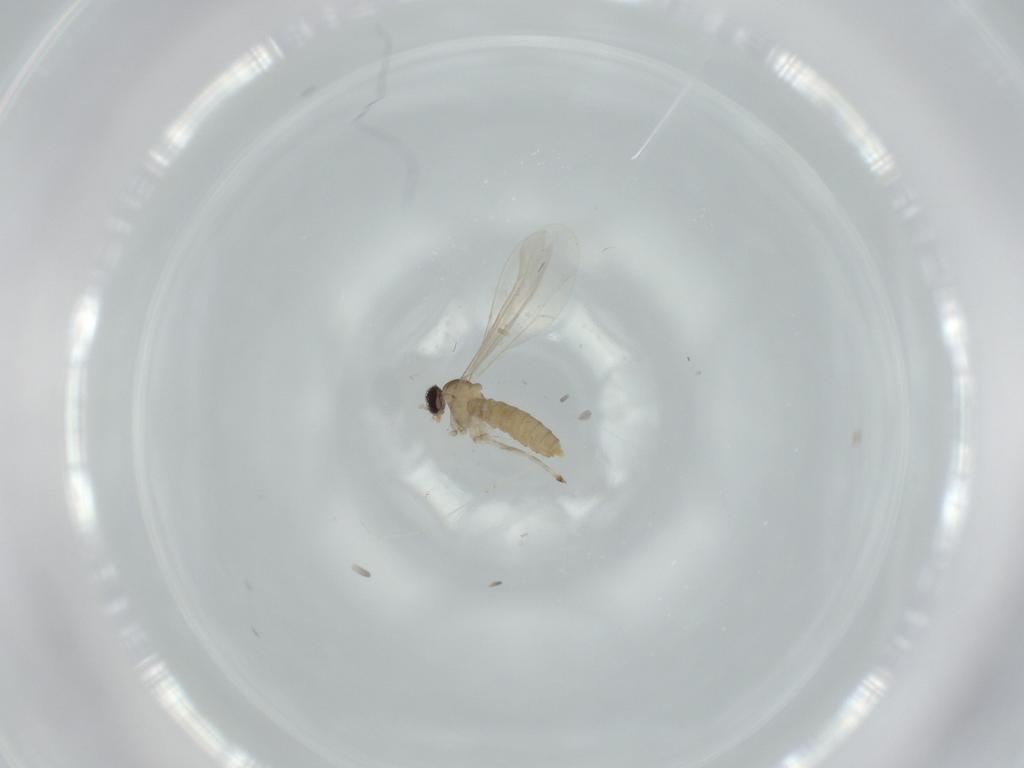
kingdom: Animalia
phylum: Arthropoda
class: Insecta
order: Diptera
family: Cecidomyiidae
